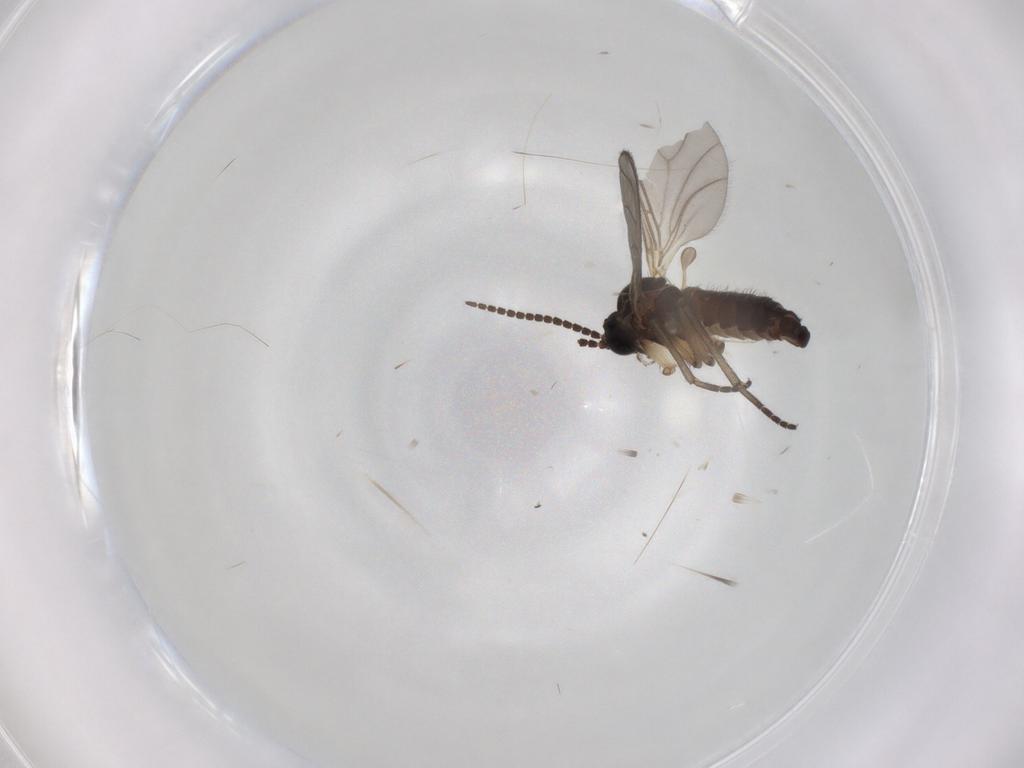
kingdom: Animalia
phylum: Arthropoda
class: Insecta
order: Diptera
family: Sciaridae
